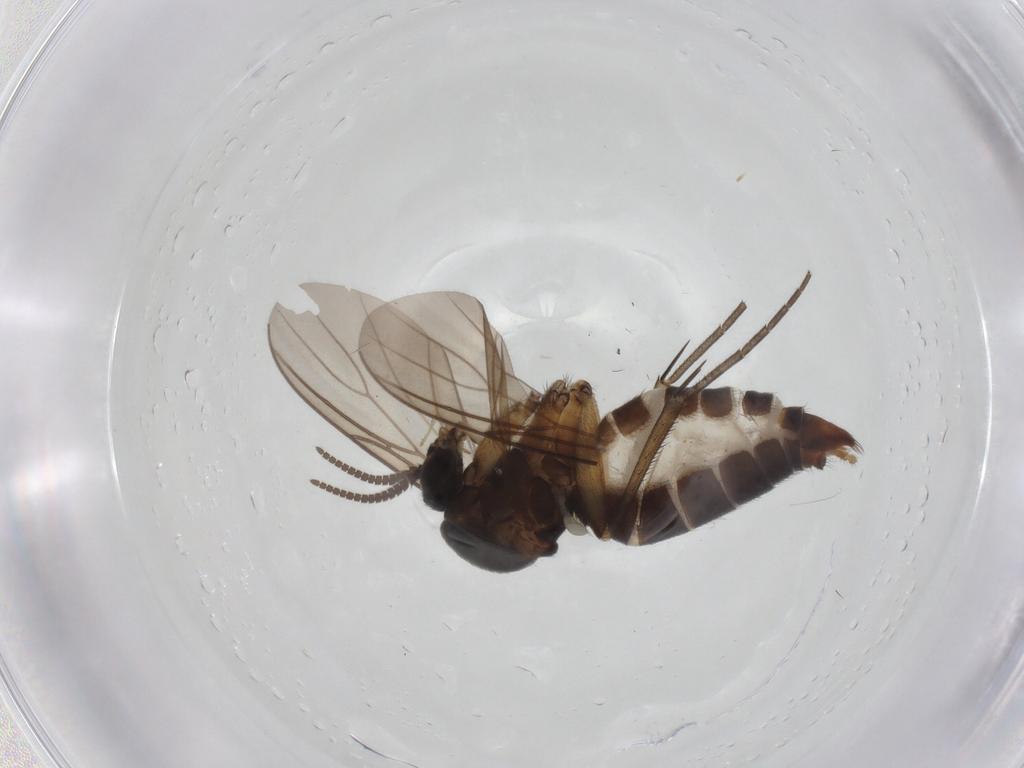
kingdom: Animalia
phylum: Arthropoda
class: Insecta
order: Diptera
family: Mycetophilidae
